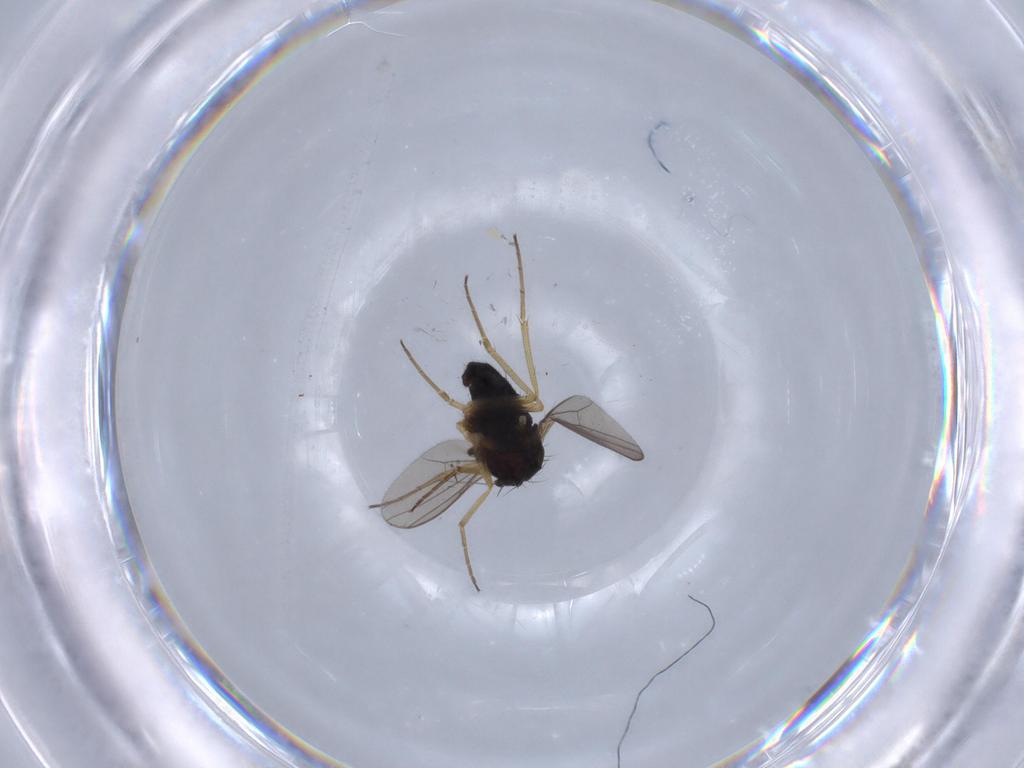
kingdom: Animalia
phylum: Arthropoda
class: Insecta
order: Diptera
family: Dolichopodidae
